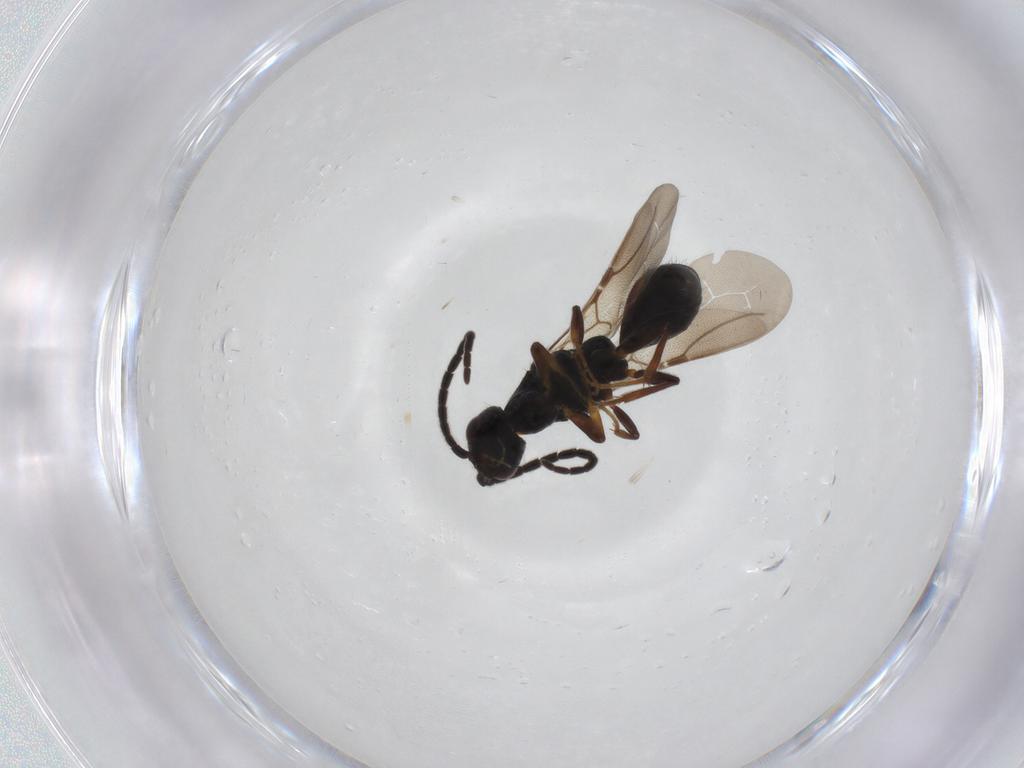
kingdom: Animalia
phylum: Arthropoda
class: Insecta
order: Hymenoptera
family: Bethylidae
